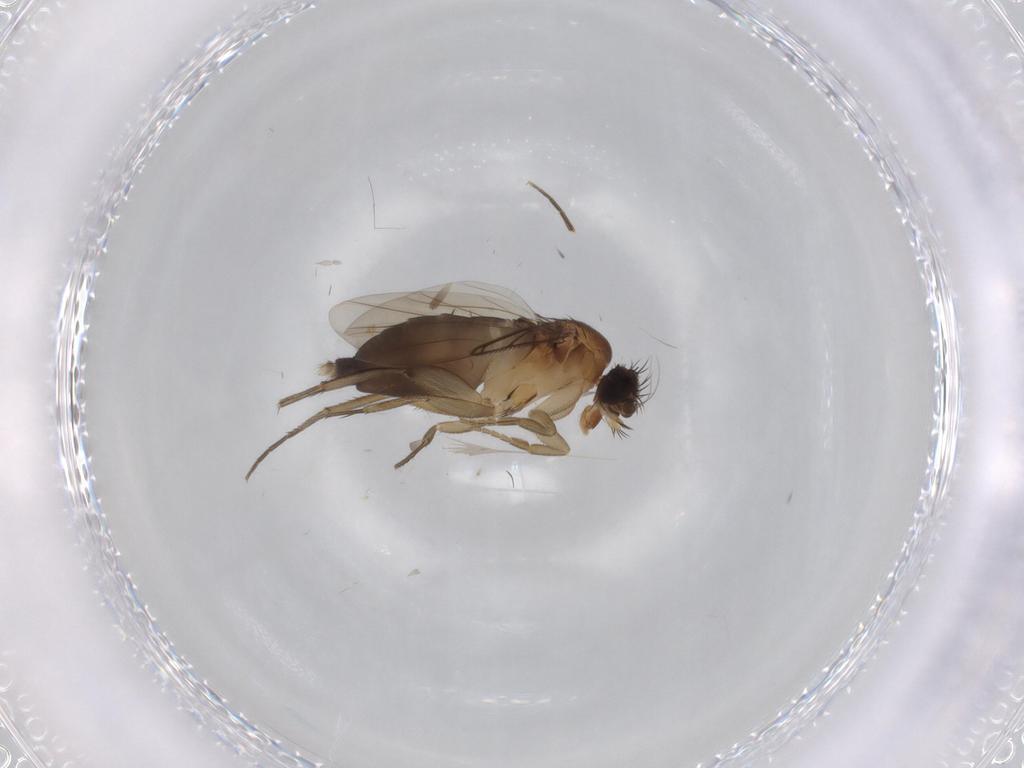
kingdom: Animalia
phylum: Arthropoda
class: Insecta
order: Diptera
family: Phoridae
